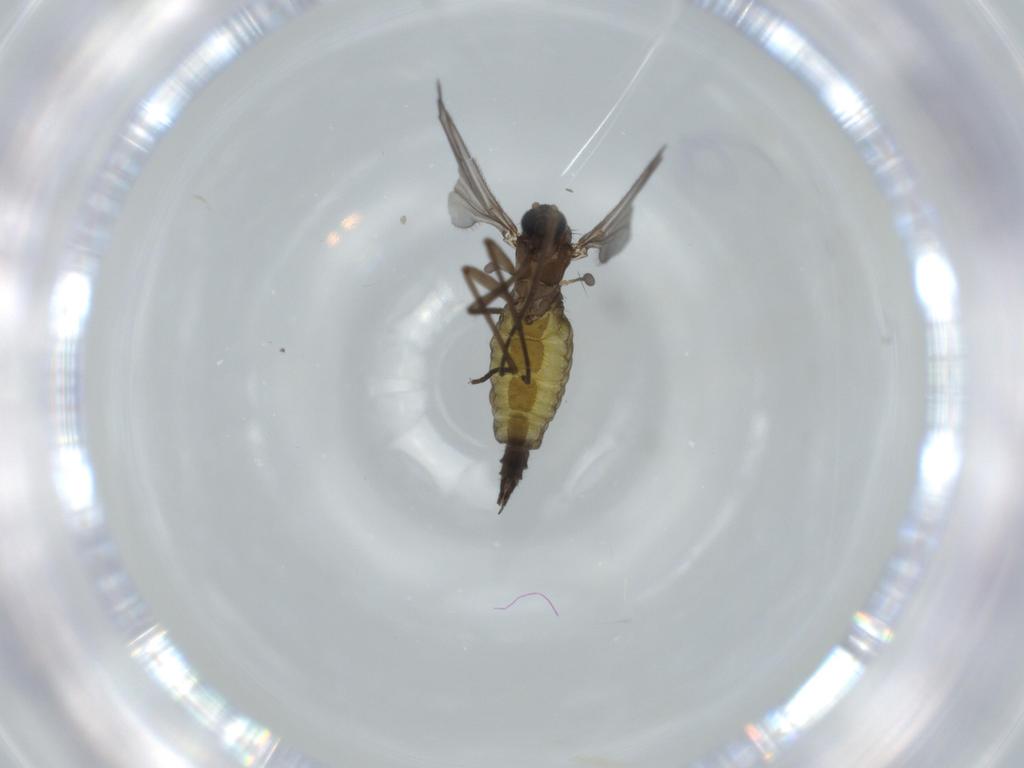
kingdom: Animalia
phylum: Arthropoda
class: Insecta
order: Diptera
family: Sciaridae
